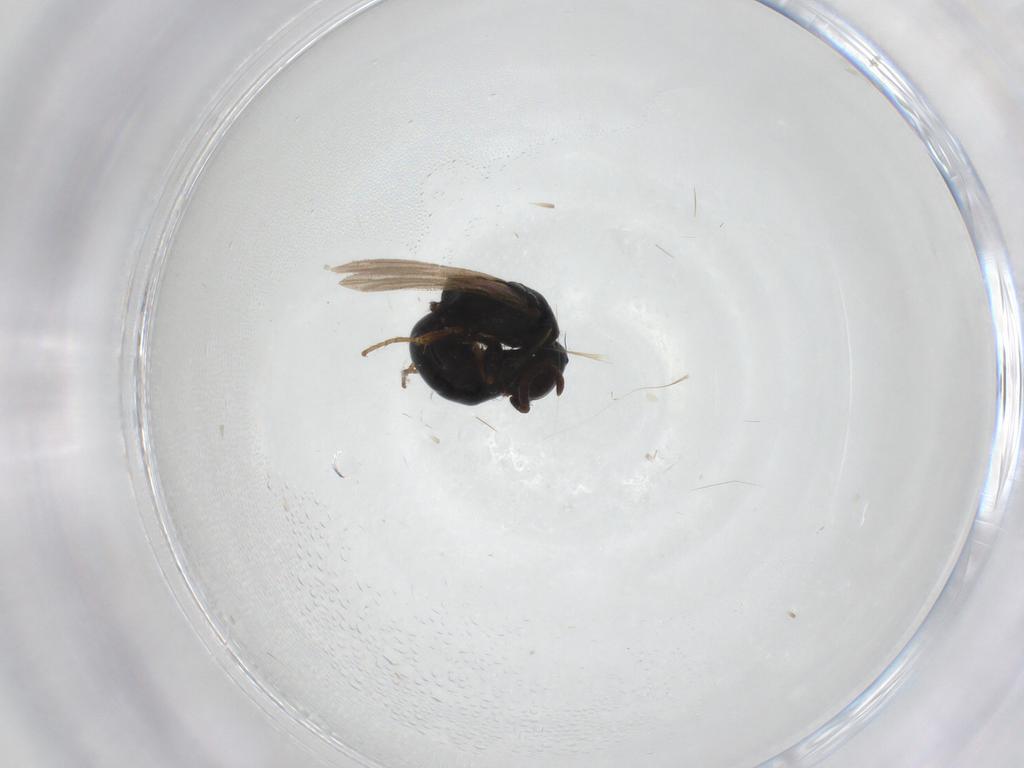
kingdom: Animalia
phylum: Arthropoda
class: Insecta
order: Hymenoptera
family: Bethylidae
